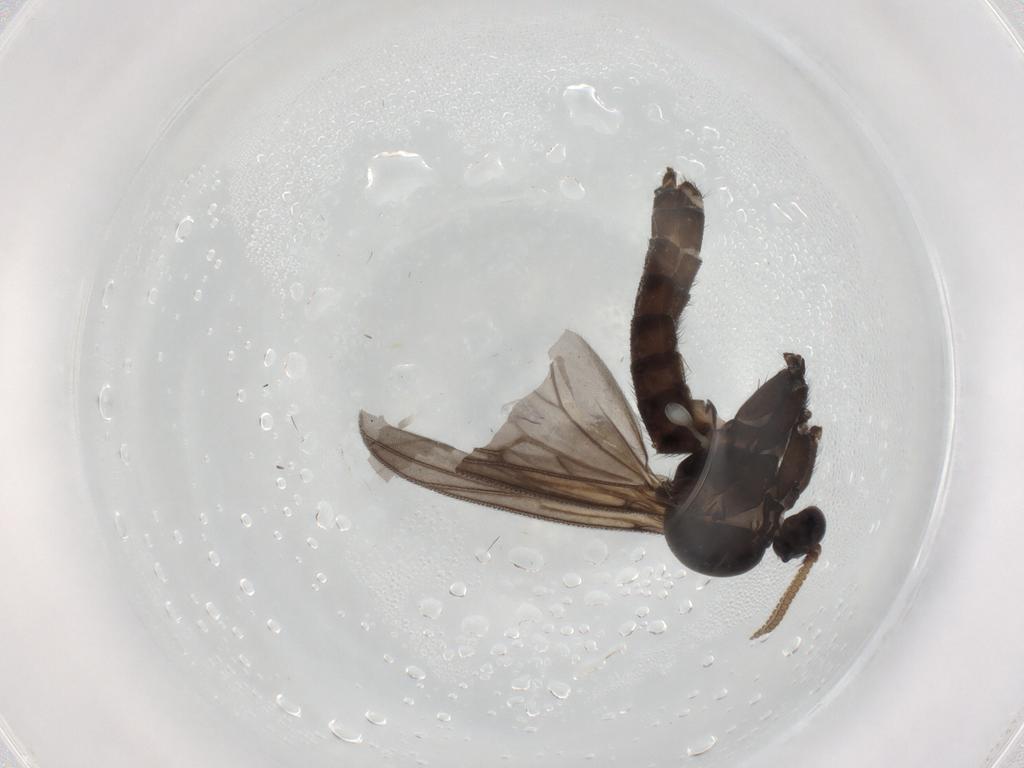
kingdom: Animalia
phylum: Arthropoda
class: Insecta
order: Diptera
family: Mycetophilidae
